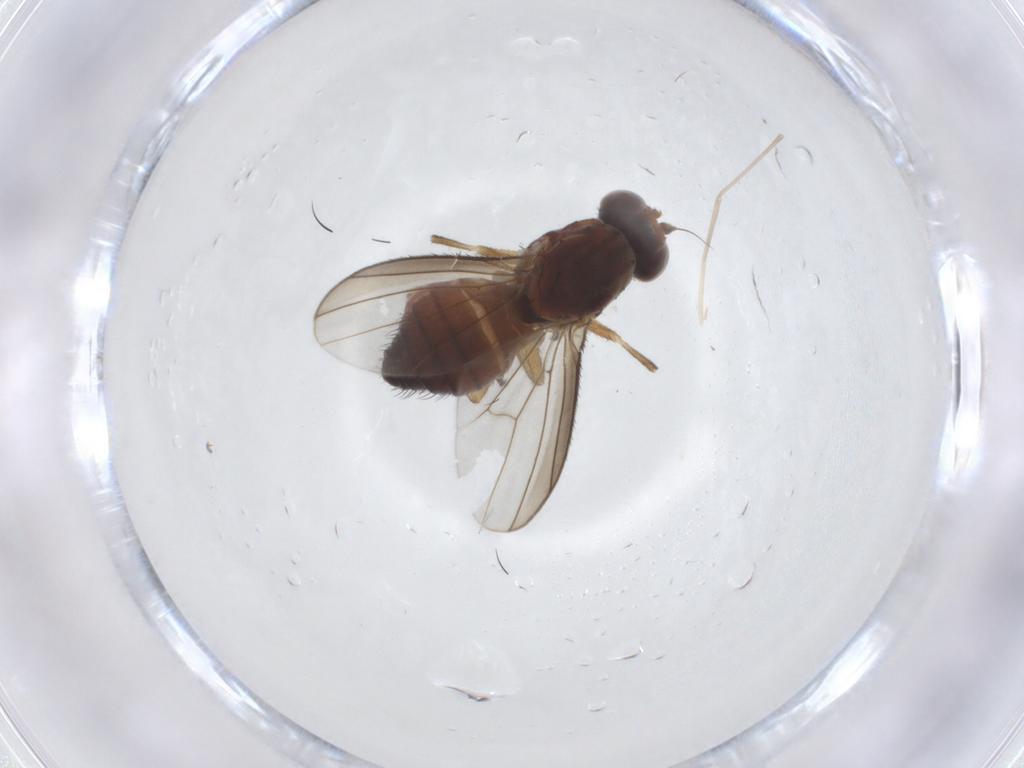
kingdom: Animalia
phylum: Arthropoda
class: Insecta
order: Diptera
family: Heleomyzidae
